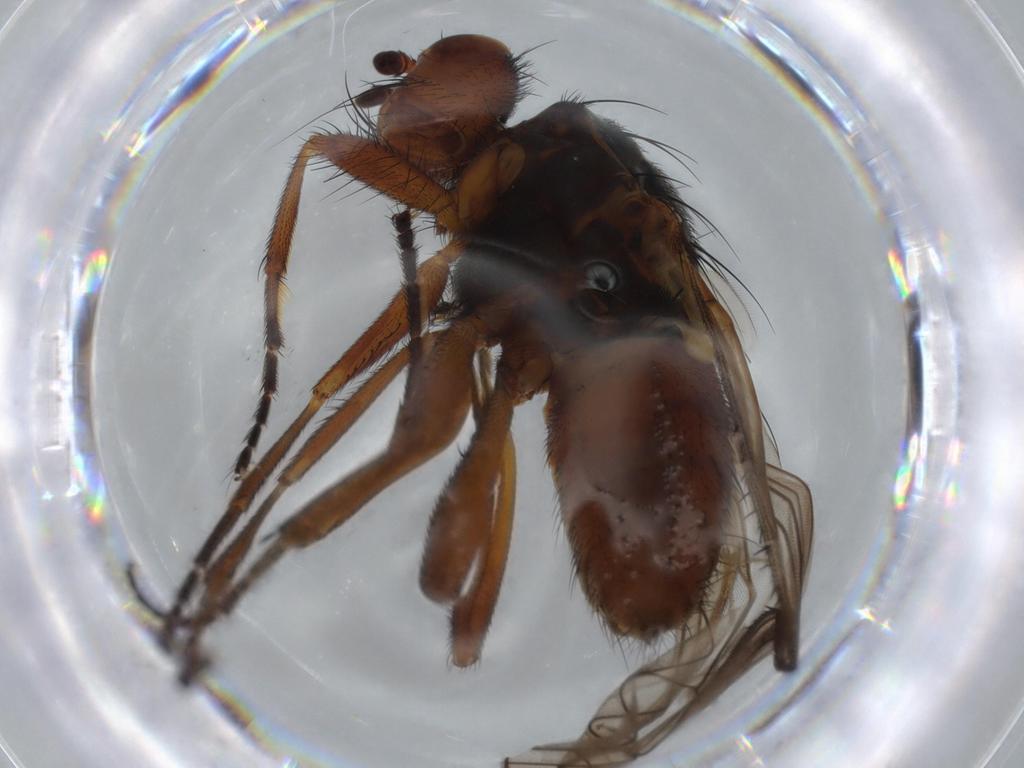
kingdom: Animalia
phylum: Arthropoda
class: Insecta
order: Diptera
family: Heleomyzidae
